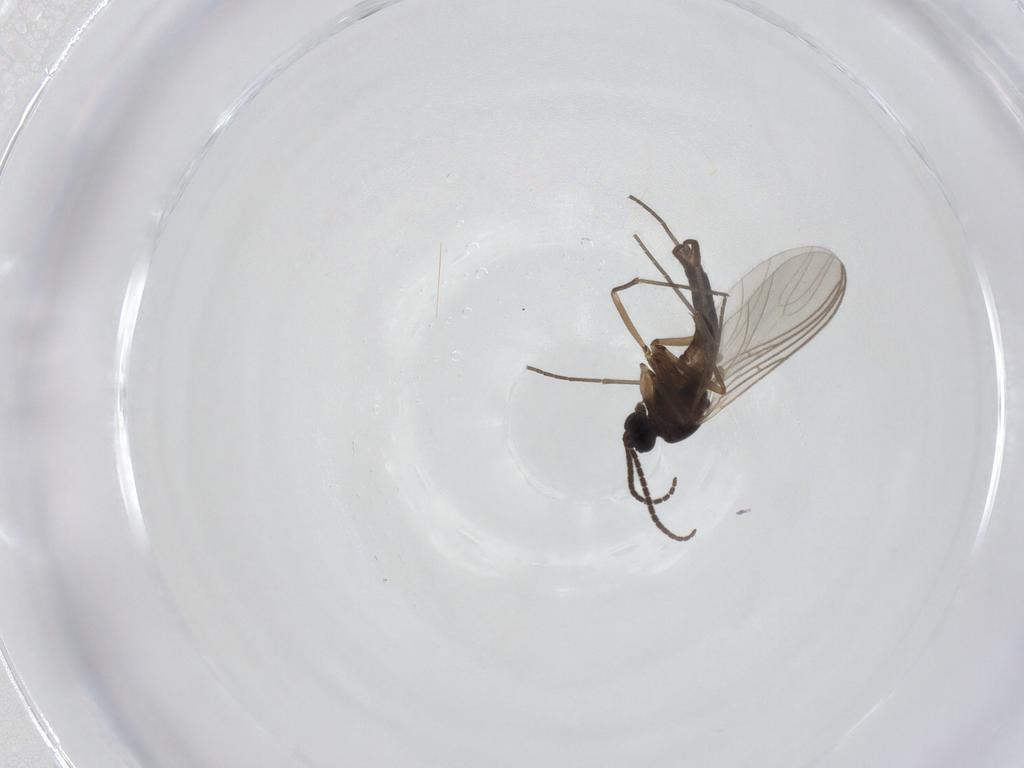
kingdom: Animalia
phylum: Arthropoda
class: Insecta
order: Diptera
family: Sciaridae
